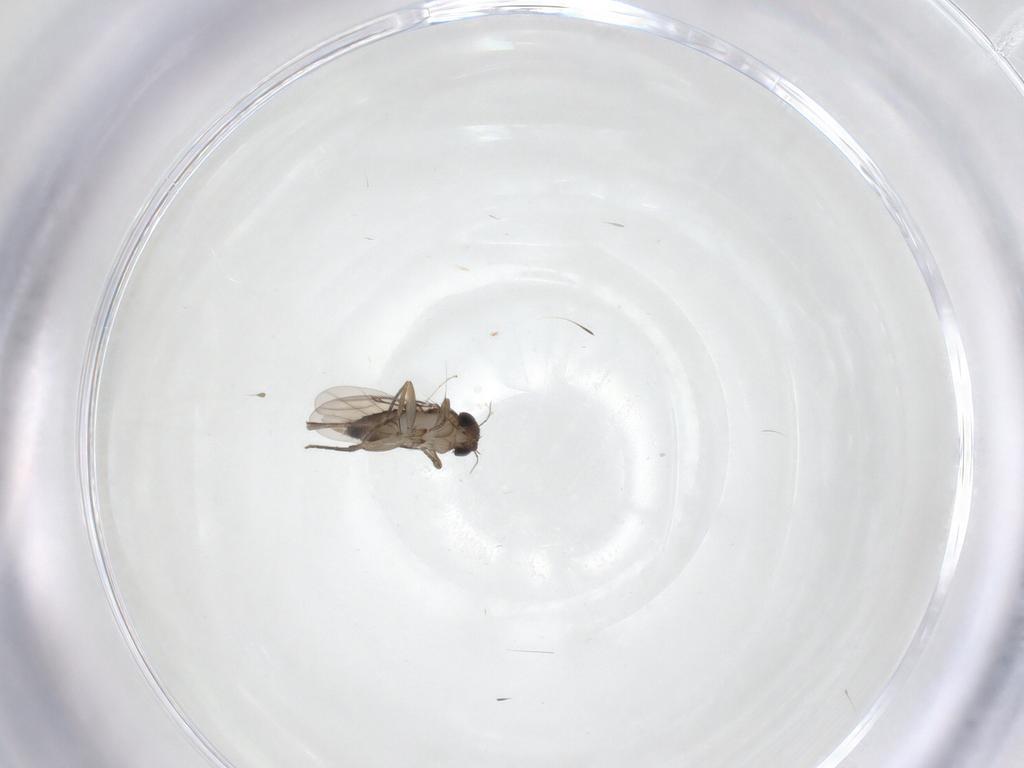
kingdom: Animalia
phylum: Arthropoda
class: Insecta
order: Diptera
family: Phoridae
